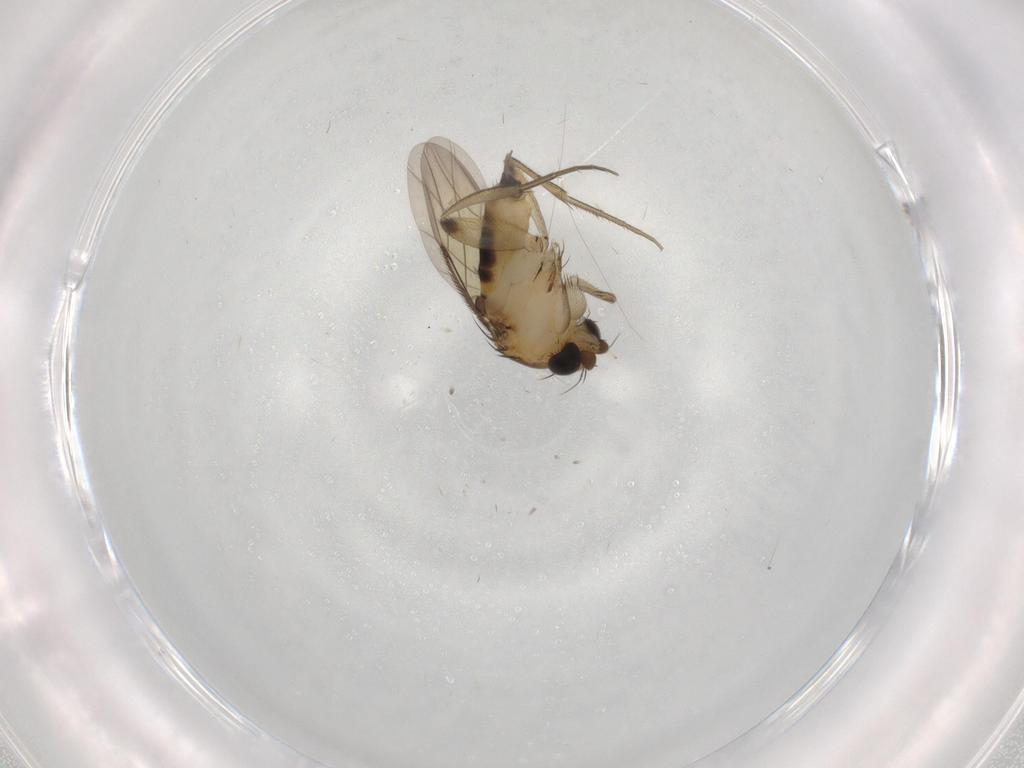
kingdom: Animalia
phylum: Arthropoda
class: Insecta
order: Diptera
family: Phoridae
